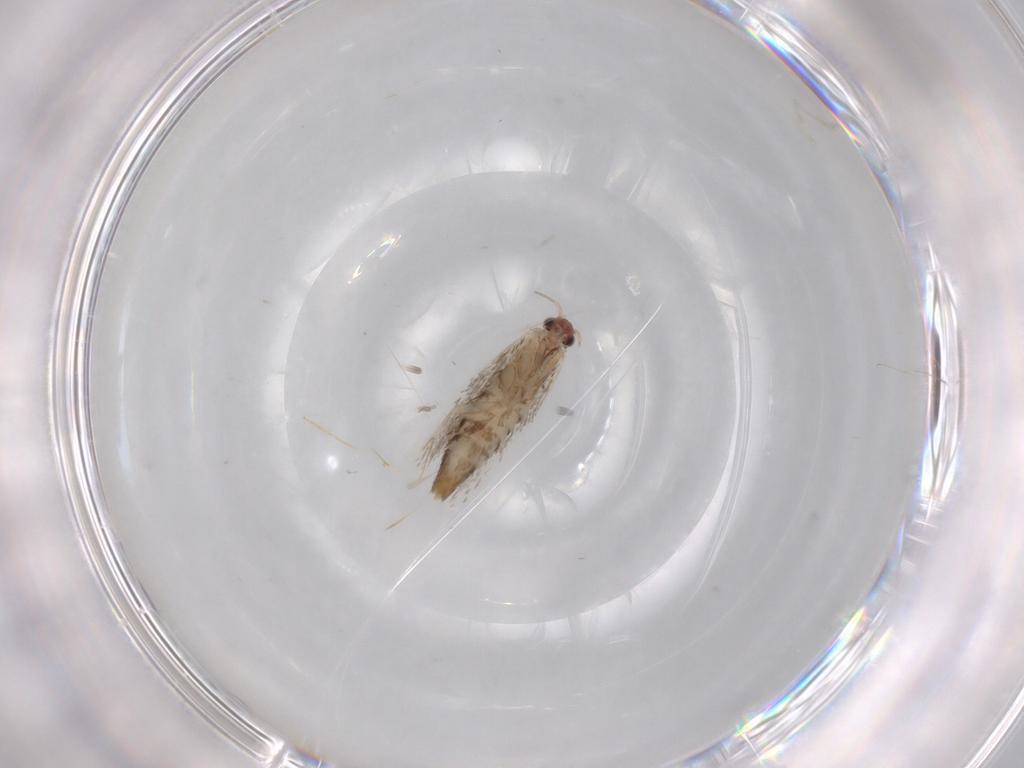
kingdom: Animalia
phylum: Arthropoda
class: Insecta
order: Lepidoptera
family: Tineidae
